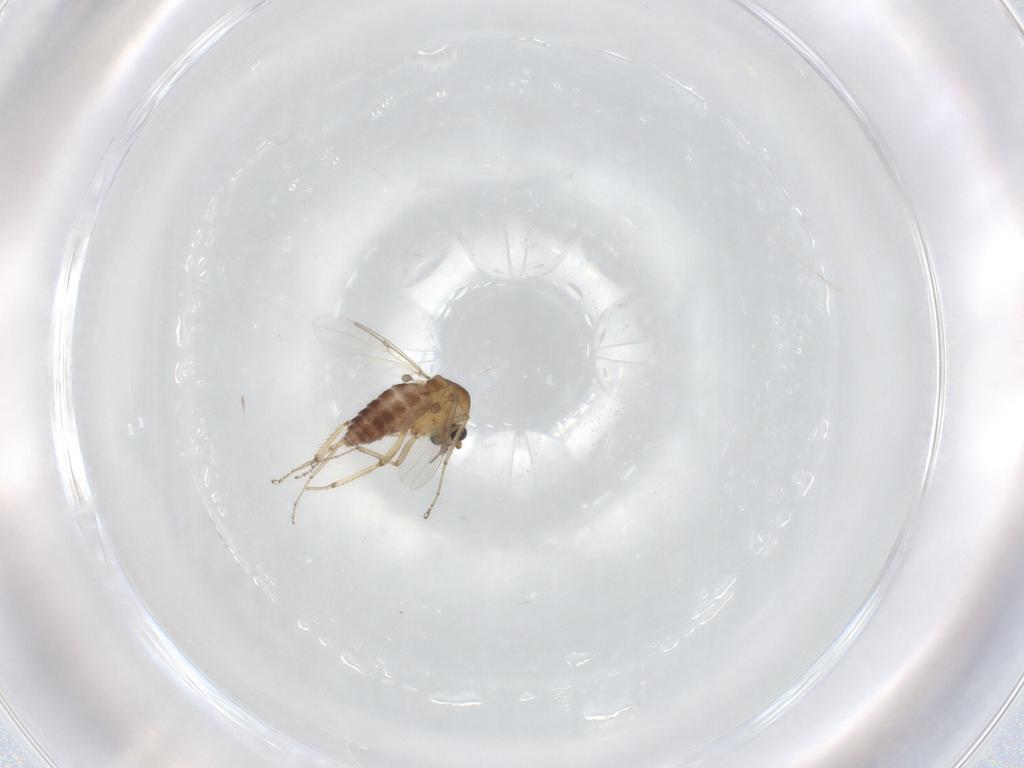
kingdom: Animalia
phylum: Arthropoda
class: Insecta
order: Diptera
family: Ceratopogonidae
